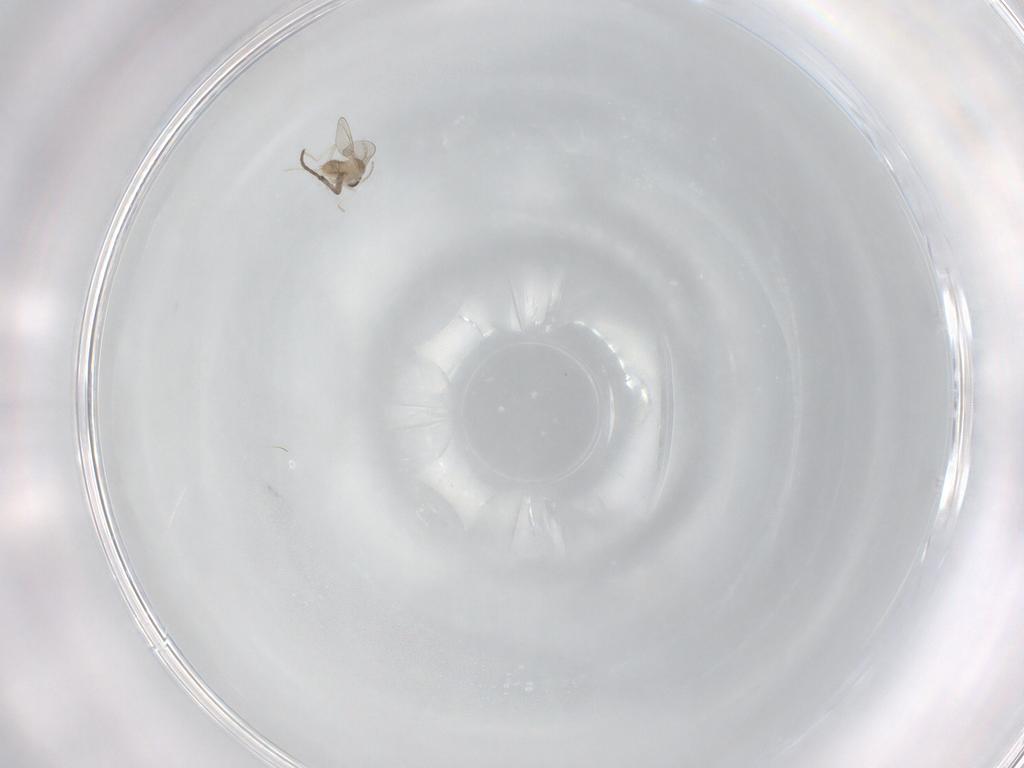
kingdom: Animalia
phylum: Arthropoda
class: Insecta
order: Diptera
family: Cecidomyiidae
